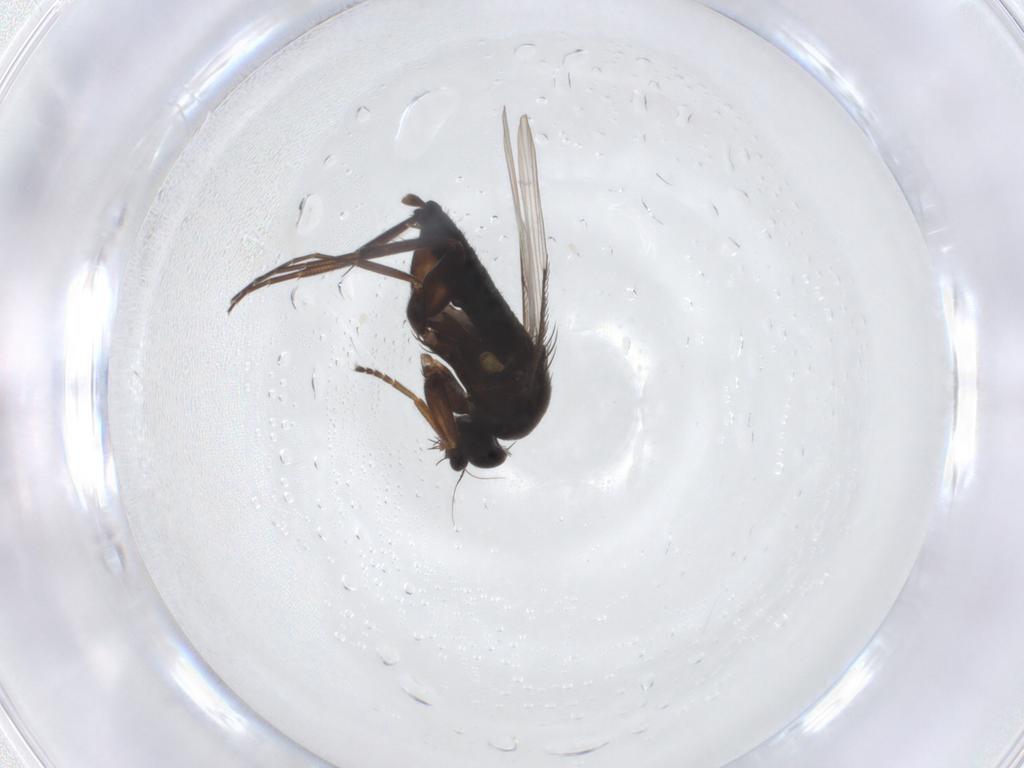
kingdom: Animalia
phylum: Arthropoda
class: Insecta
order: Diptera
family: Phoridae
